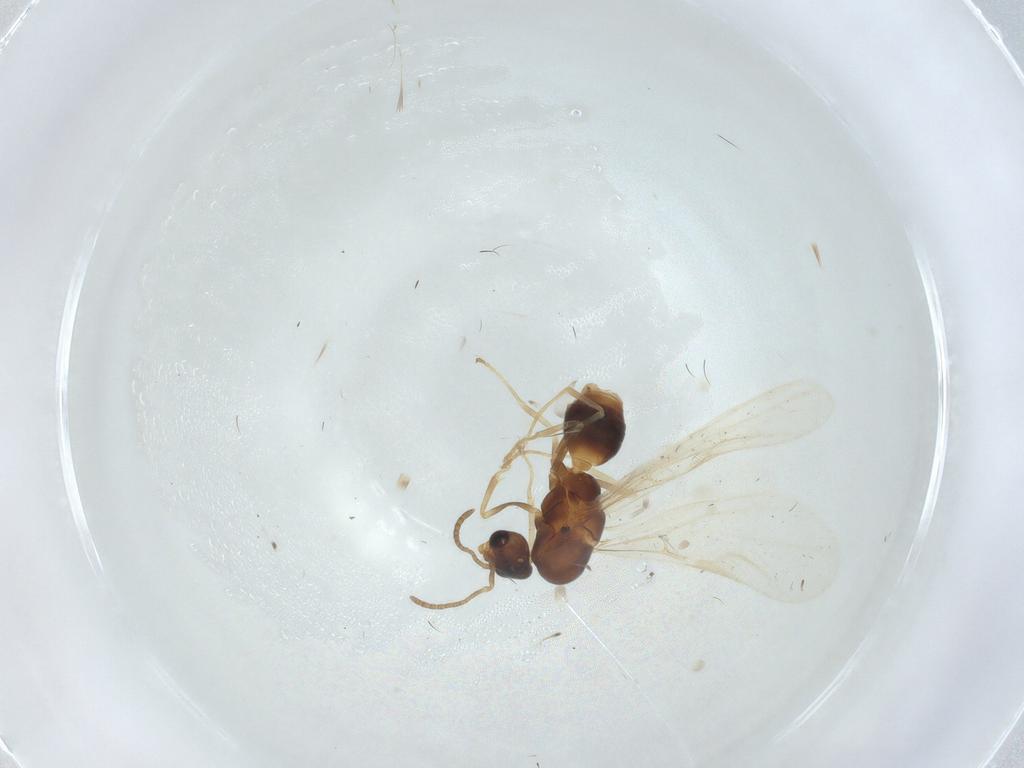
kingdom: Animalia
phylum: Arthropoda
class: Insecta
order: Hymenoptera
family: Formicidae
